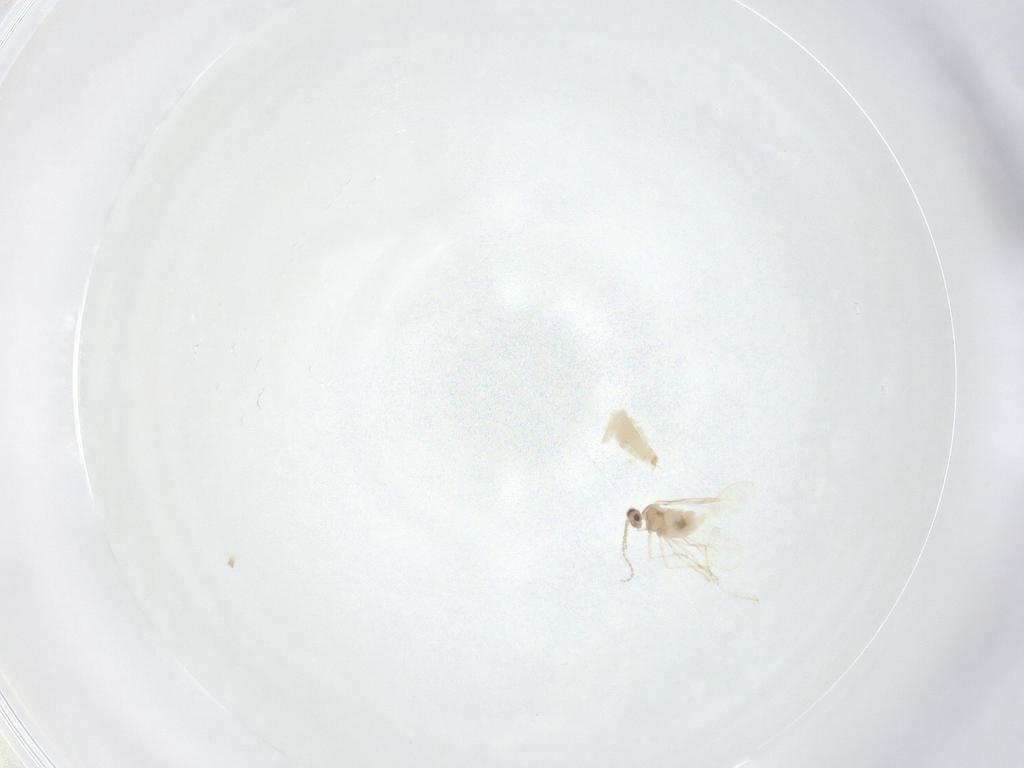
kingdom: Animalia
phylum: Arthropoda
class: Insecta
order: Diptera
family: Cecidomyiidae
